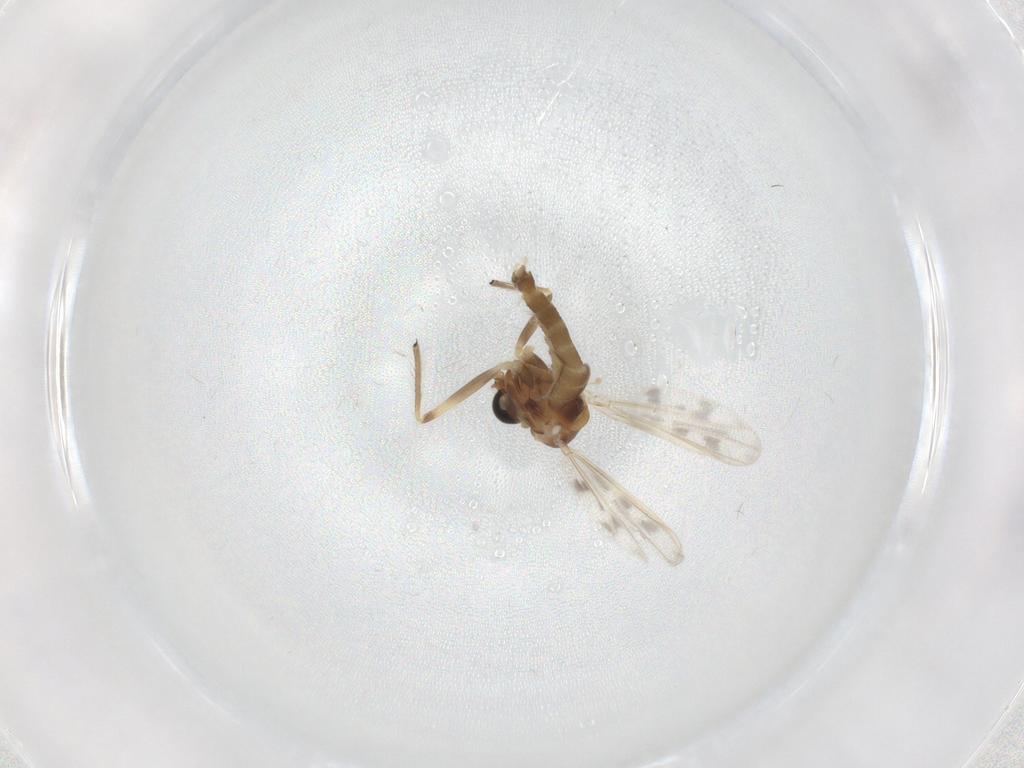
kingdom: Animalia
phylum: Arthropoda
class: Insecta
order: Diptera
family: Chironomidae
